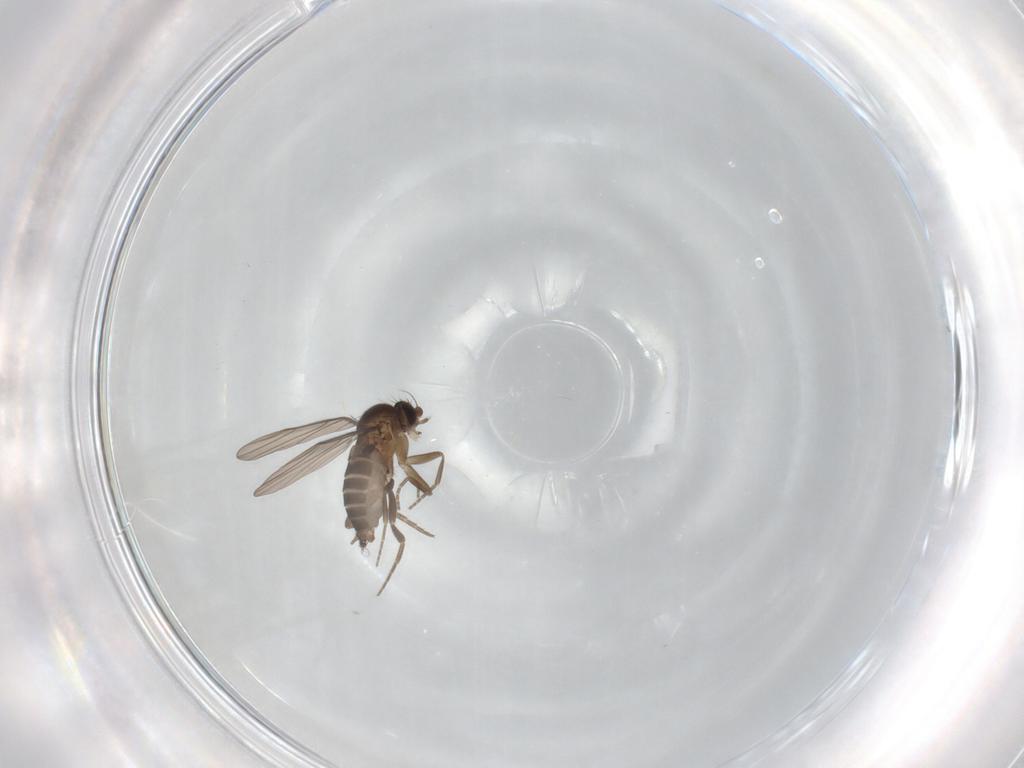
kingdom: Animalia
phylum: Arthropoda
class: Insecta
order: Diptera
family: Phoridae
